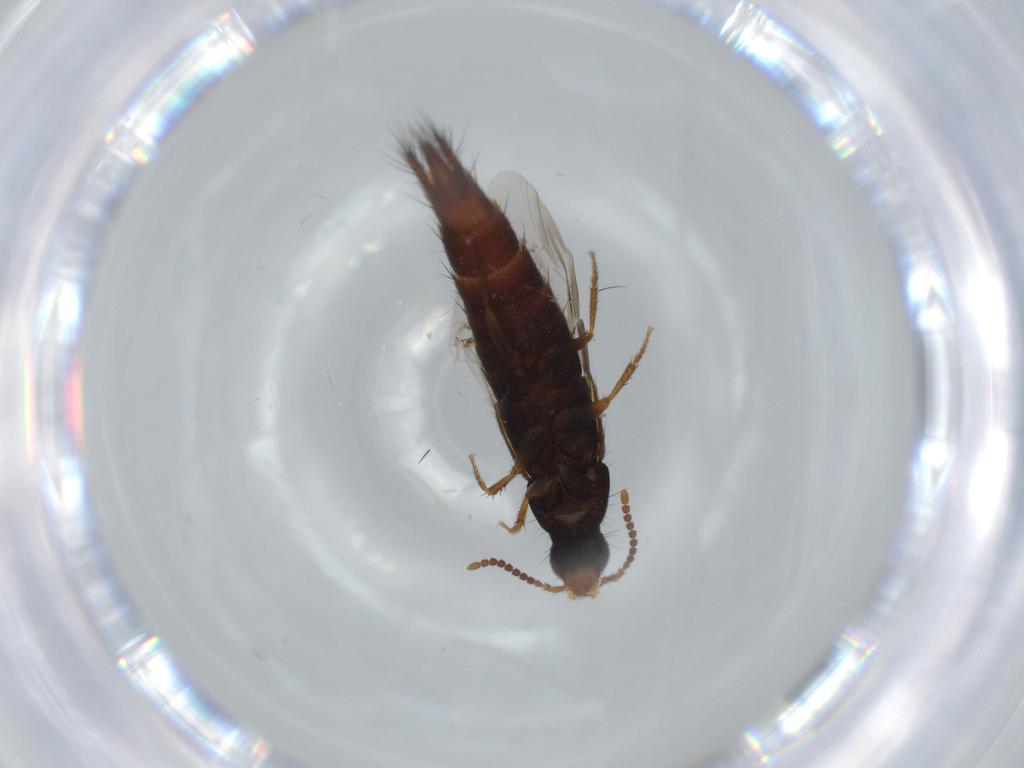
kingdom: Animalia
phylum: Arthropoda
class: Insecta
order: Coleoptera
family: Staphylinidae
